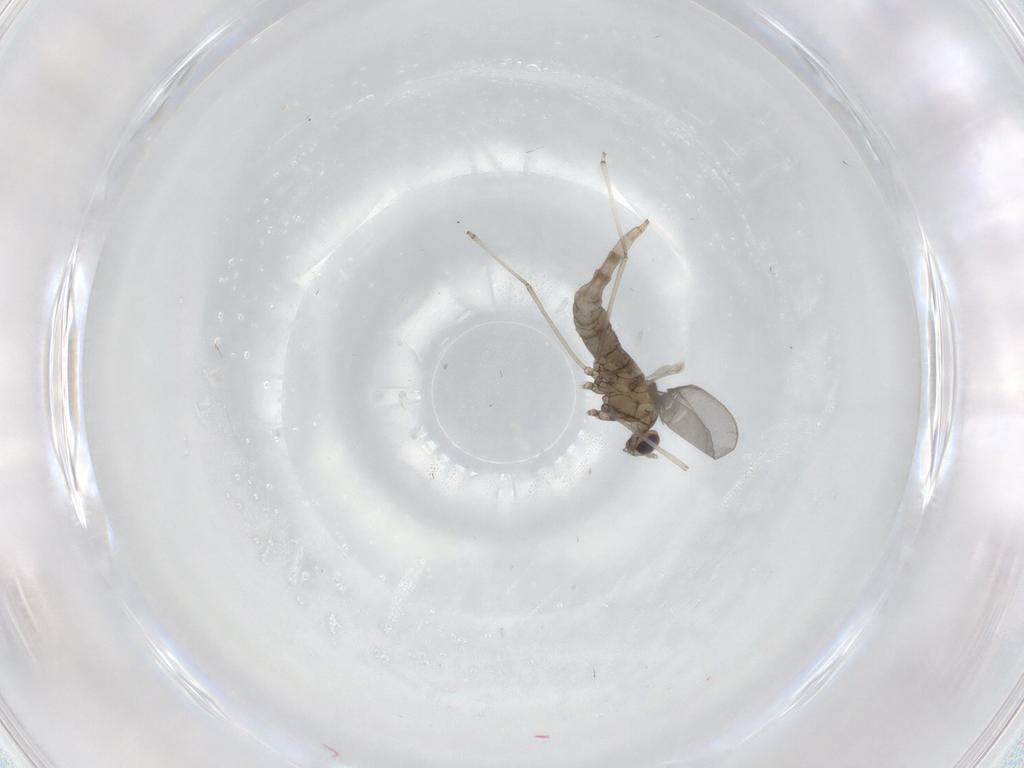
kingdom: Animalia
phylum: Arthropoda
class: Insecta
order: Diptera
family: Cecidomyiidae
